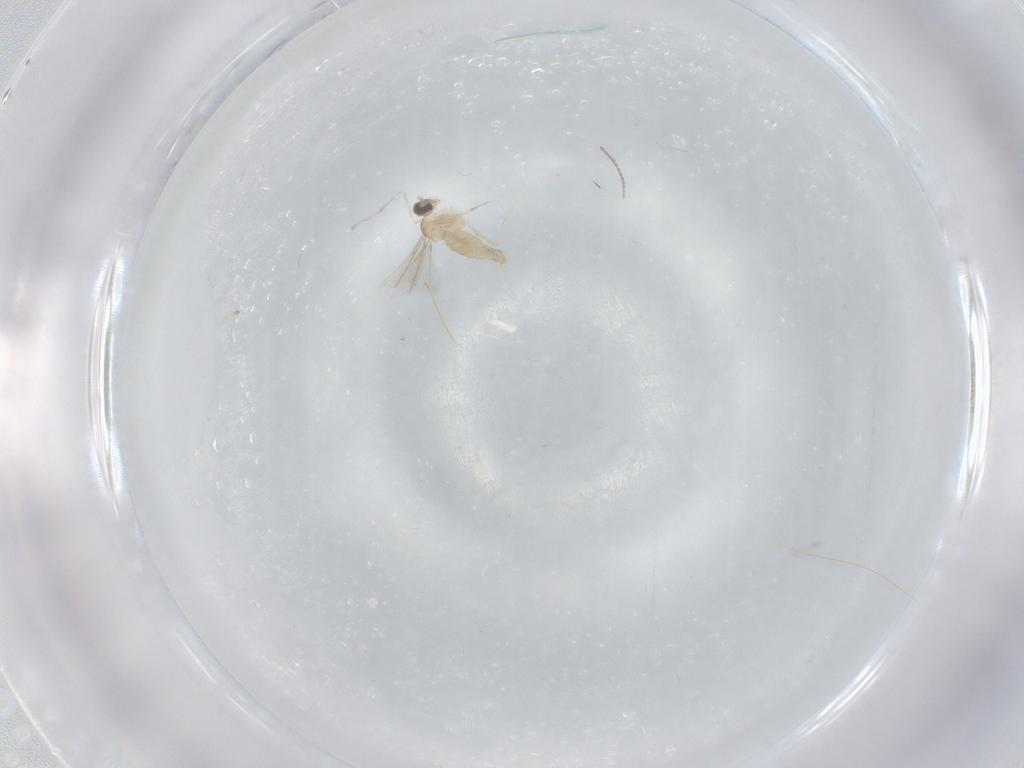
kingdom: Animalia
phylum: Arthropoda
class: Insecta
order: Diptera
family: Cecidomyiidae
